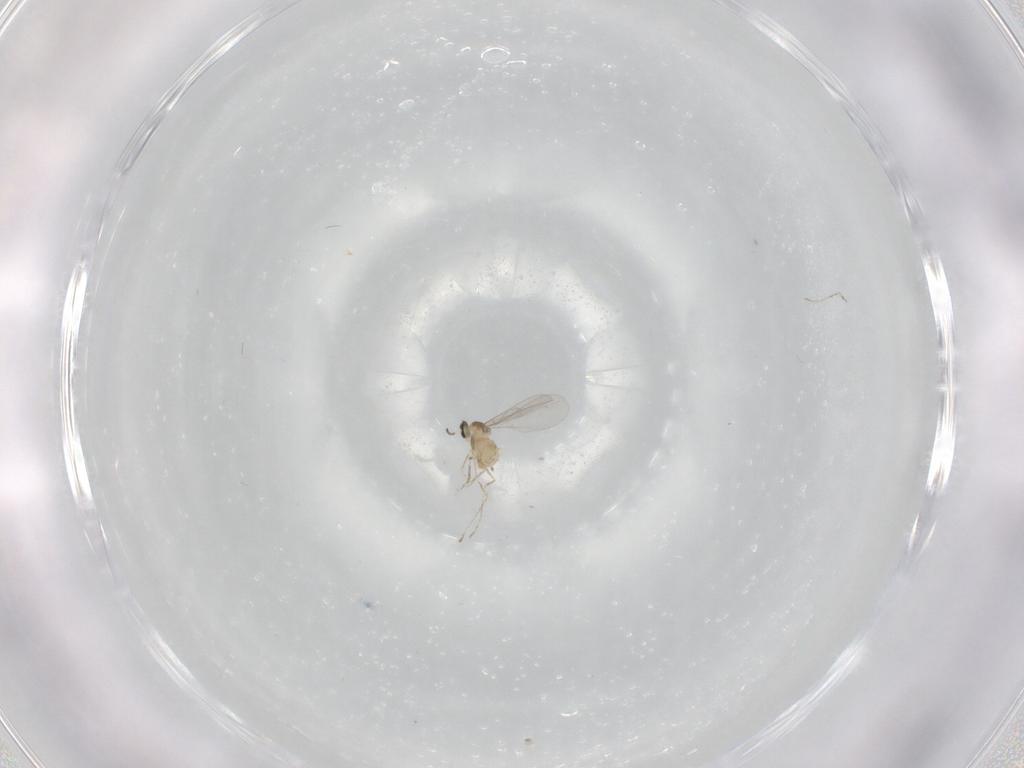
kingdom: Animalia
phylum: Arthropoda
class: Insecta
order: Diptera
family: Cecidomyiidae
